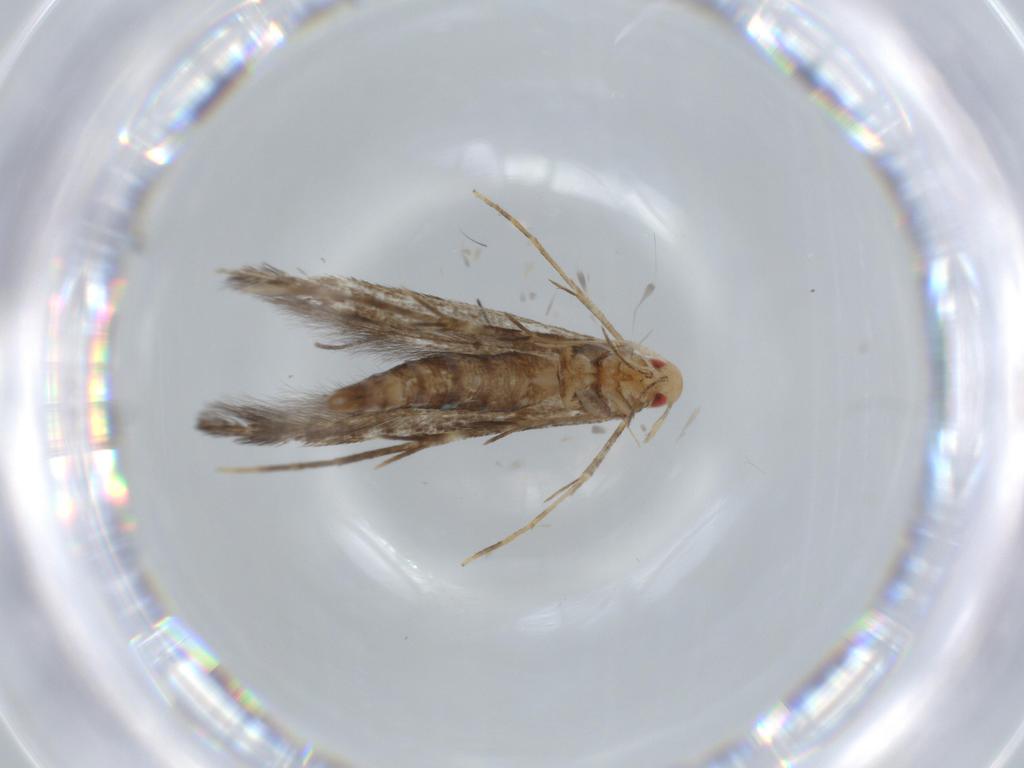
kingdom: Animalia
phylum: Arthropoda
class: Insecta
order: Lepidoptera
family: Cosmopterigidae
